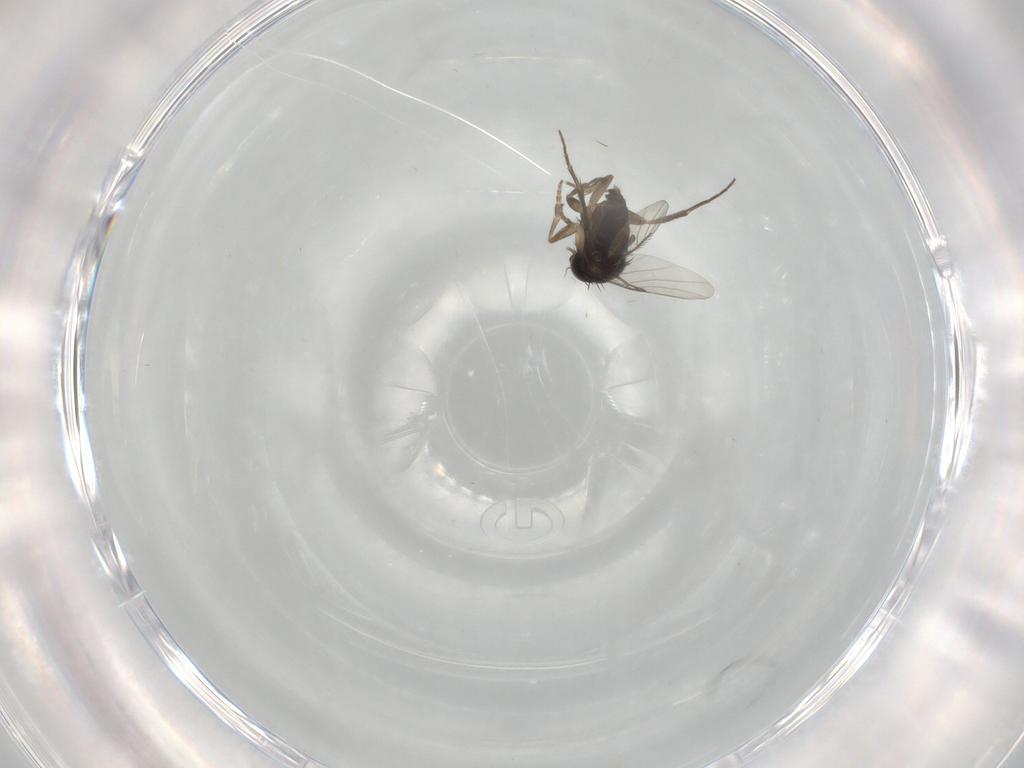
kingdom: Animalia
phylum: Arthropoda
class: Insecta
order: Diptera
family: Phoridae
